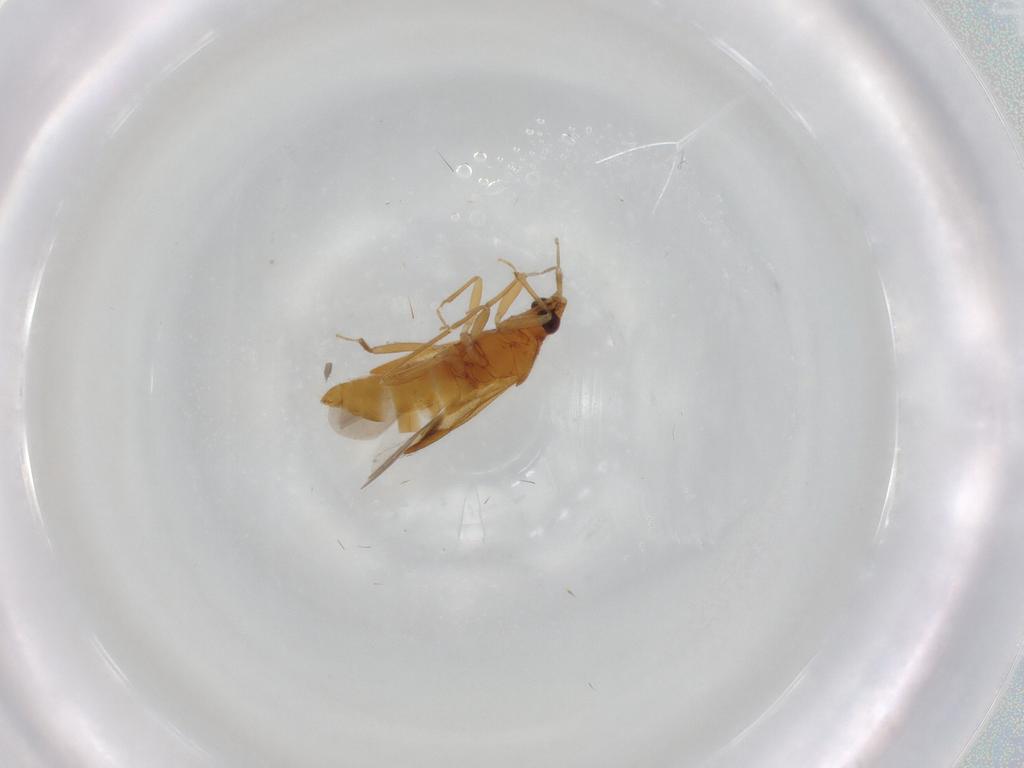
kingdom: Animalia
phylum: Arthropoda
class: Insecta
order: Hemiptera
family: Anthocoridae
